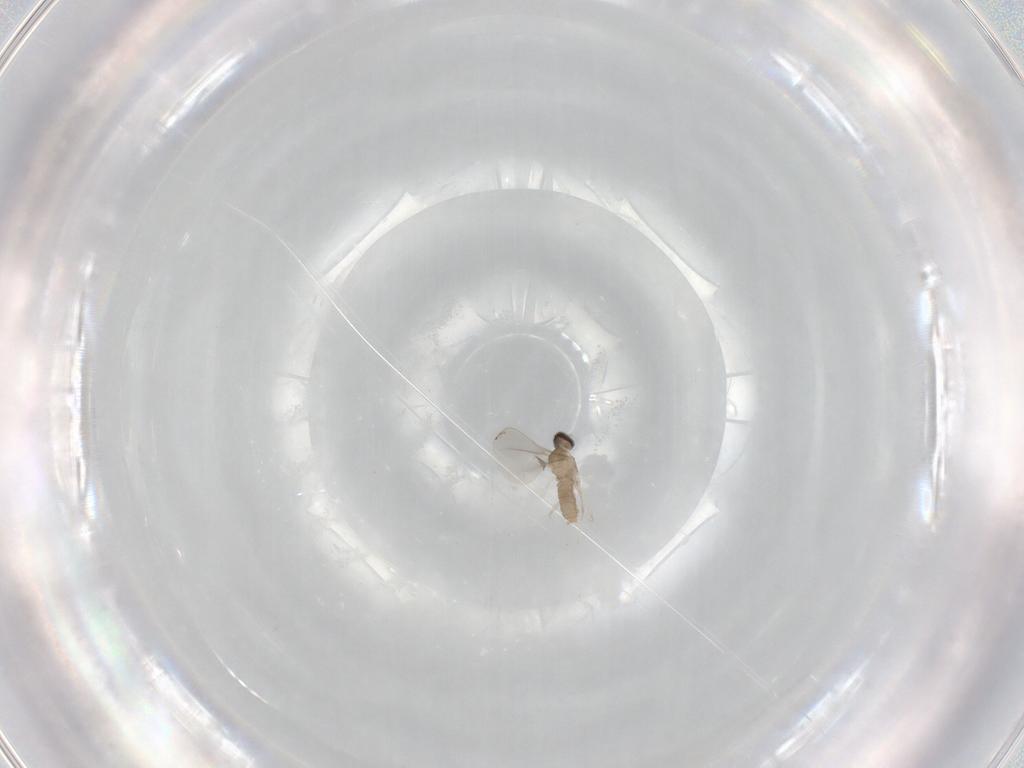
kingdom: Animalia
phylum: Arthropoda
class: Insecta
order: Diptera
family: Cecidomyiidae
